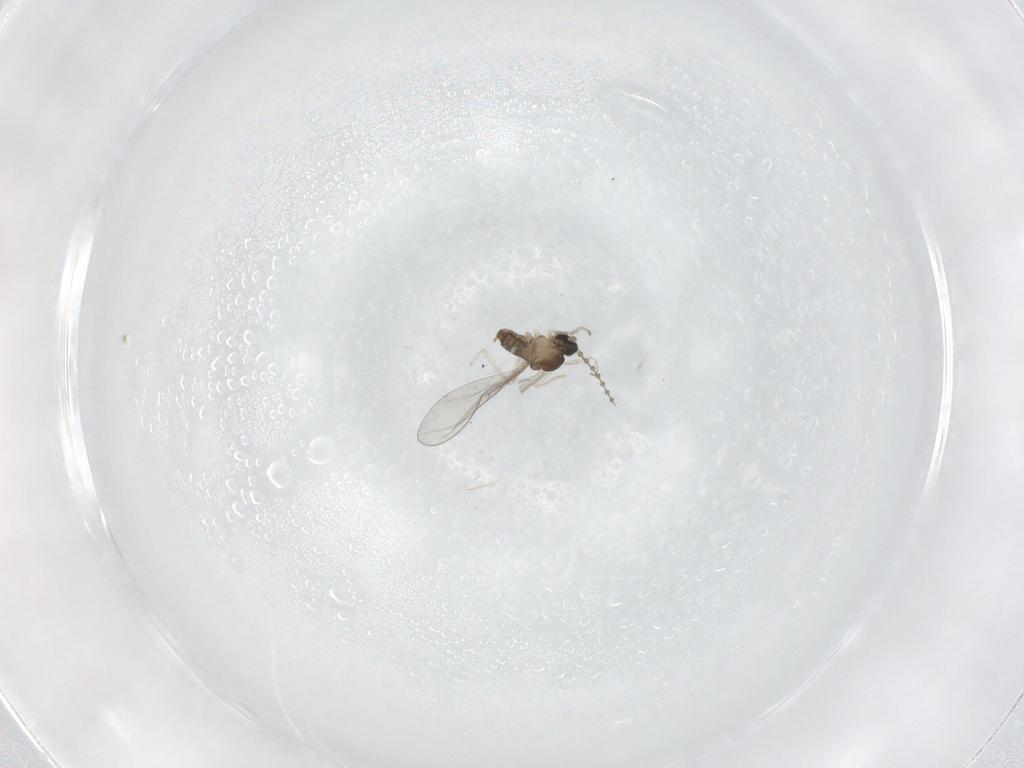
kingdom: Animalia
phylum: Arthropoda
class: Insecta
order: Diptera
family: Cecidomyiidae
